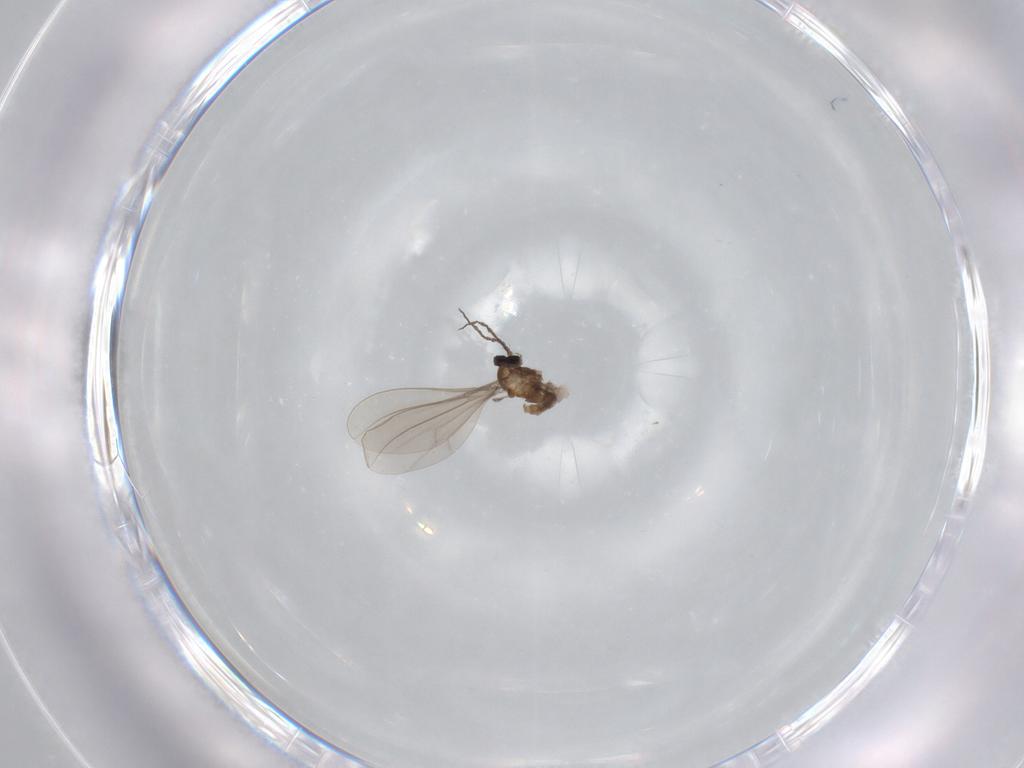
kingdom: Animalia
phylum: Arthropoda
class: Insecta
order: Diptera
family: Cecidomyiidae
